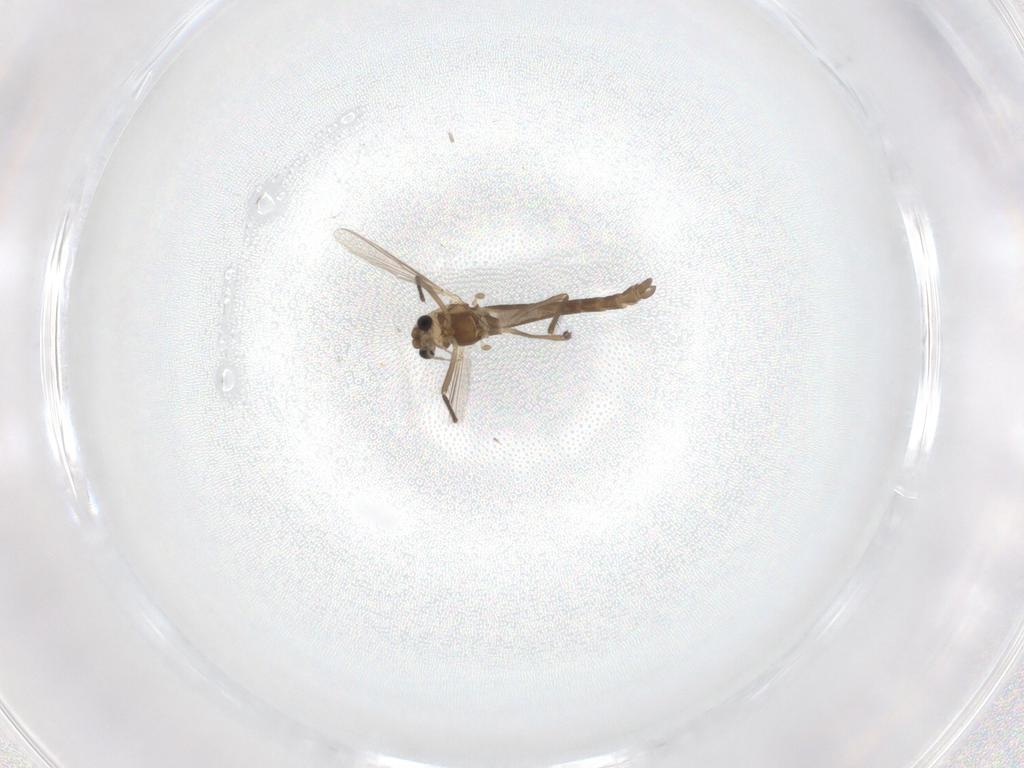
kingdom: Animalia
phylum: Arthropoda
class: Insecta
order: Diptera
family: Chironomidae
